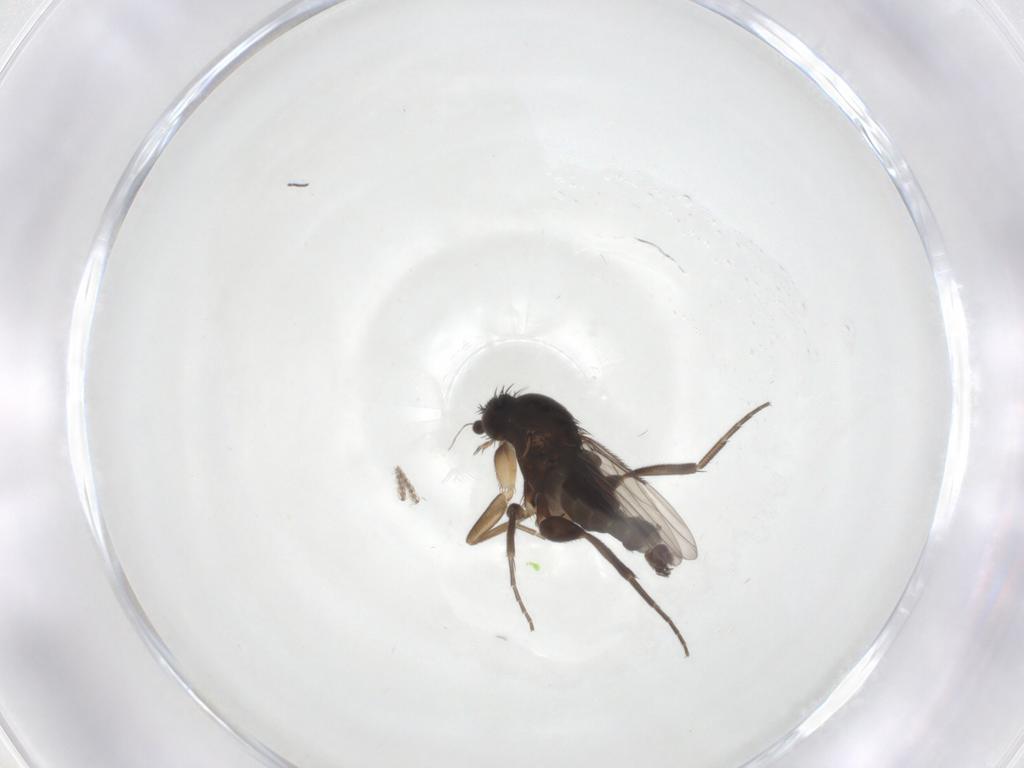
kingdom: Animalia
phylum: Arthropoda
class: Insecta
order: Diptera
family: Phoridae
